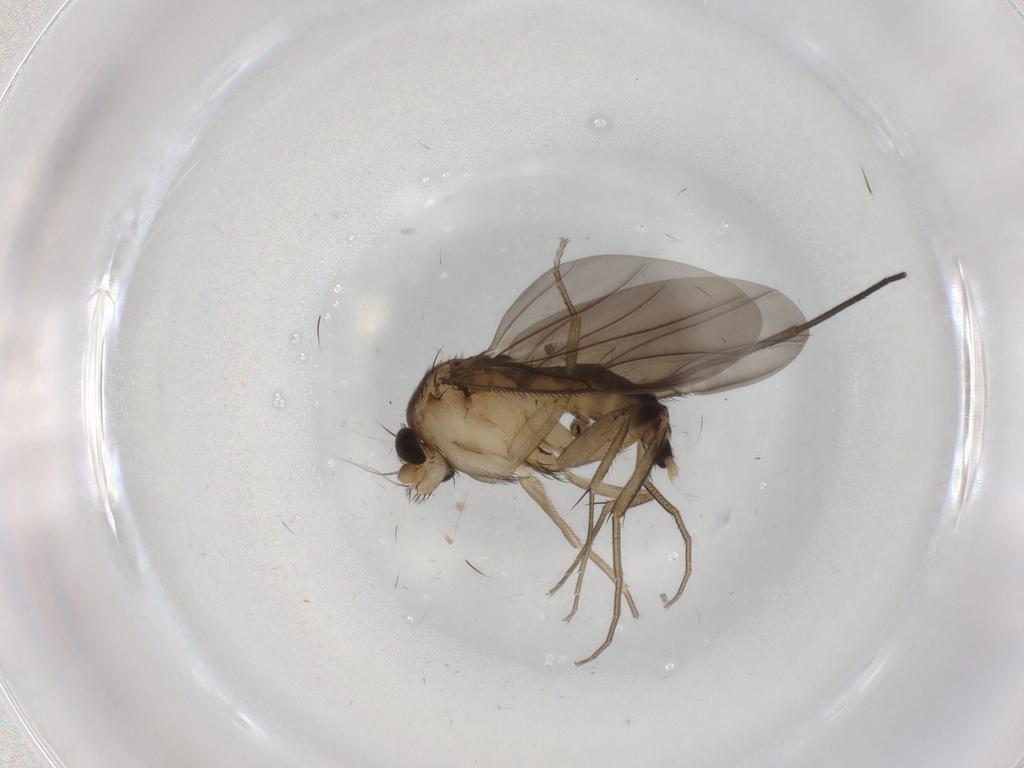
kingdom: Animalia
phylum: Arthropoda
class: Insecta
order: Diptera
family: Phoridae
